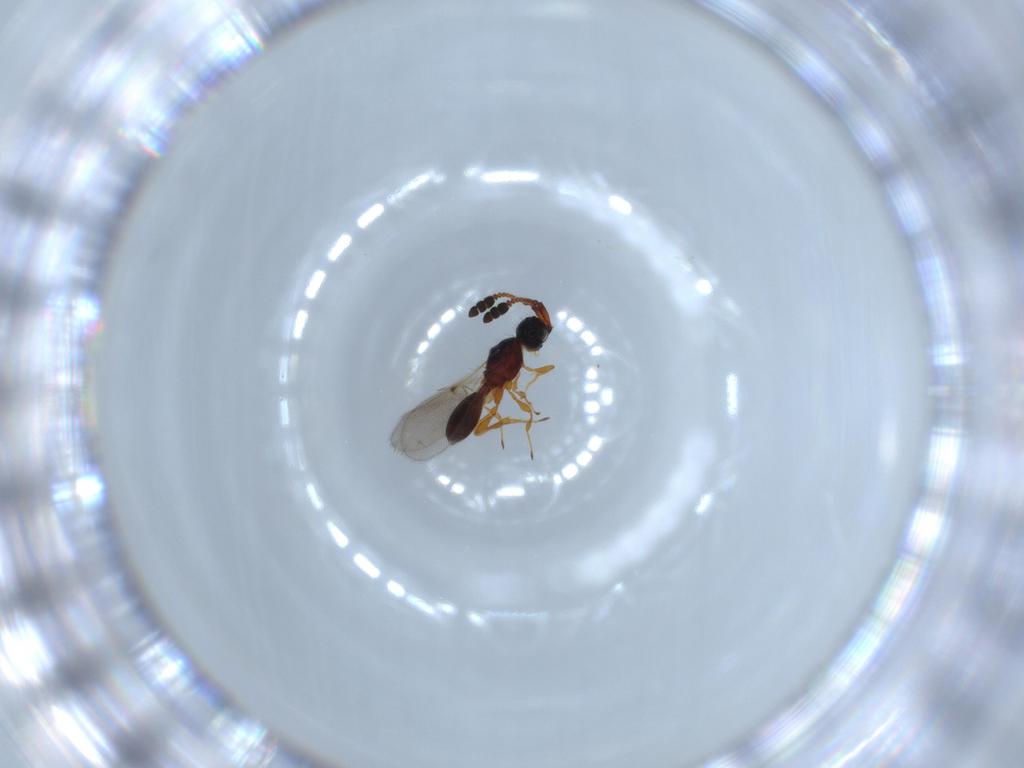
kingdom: Animalia
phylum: Arthropoda
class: Insecta
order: Hymenoptera
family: Diapriidae
